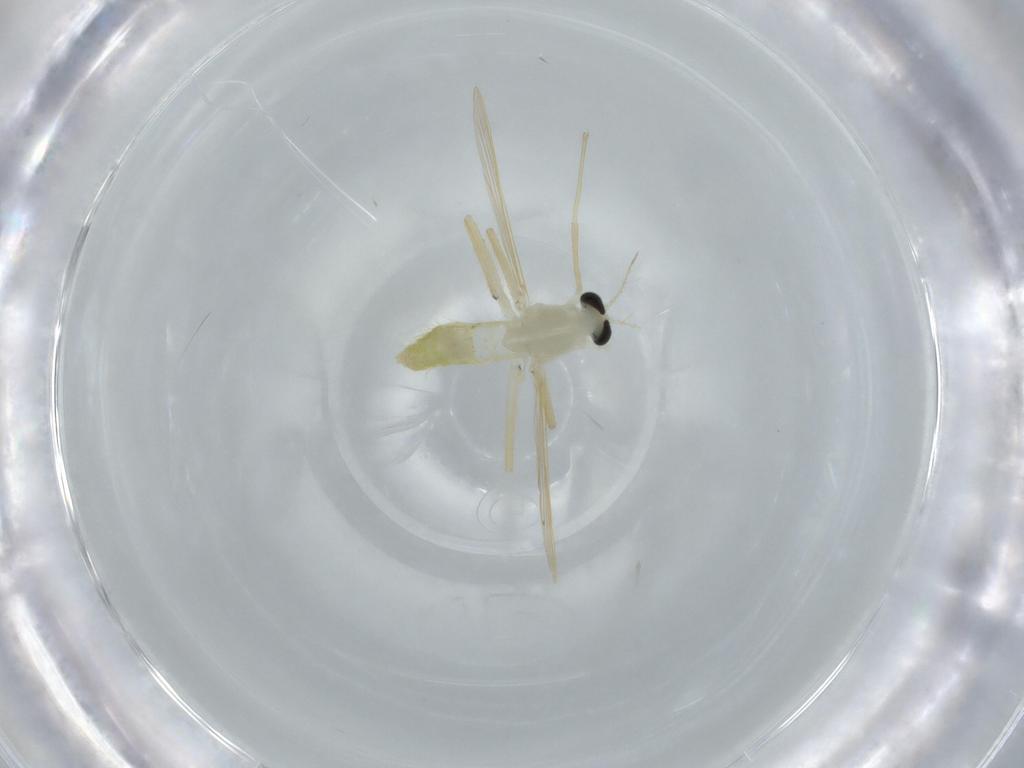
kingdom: Animalia
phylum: Arthropoda
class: Insecta
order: Diptera
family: Chironomidae
